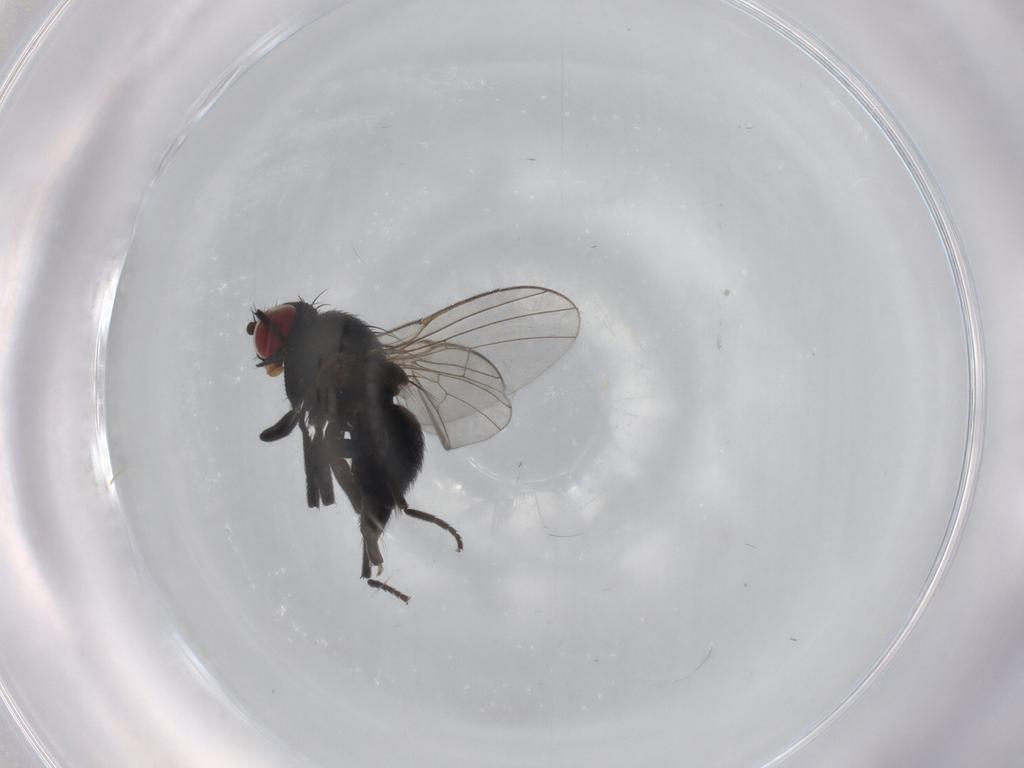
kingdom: Animalia
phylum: Arthropoda
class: Insecta
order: Diptera
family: Agromyzidae
